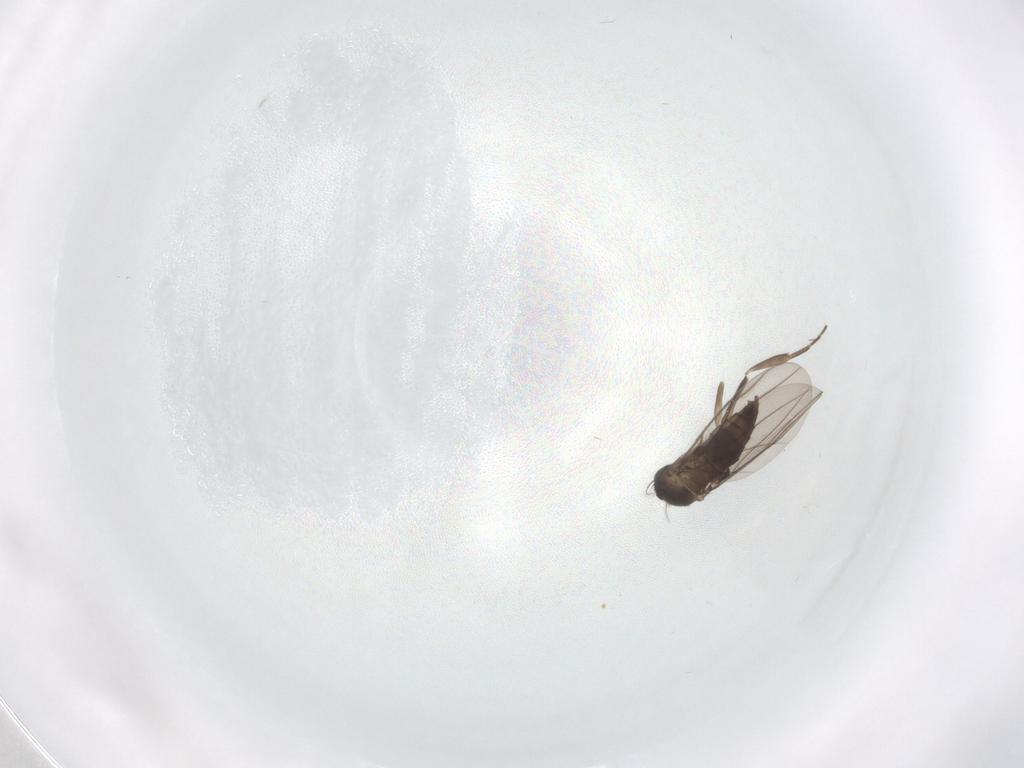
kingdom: Animalia
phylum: Arthropoda
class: Insecta
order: Diptera
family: Phoridae
